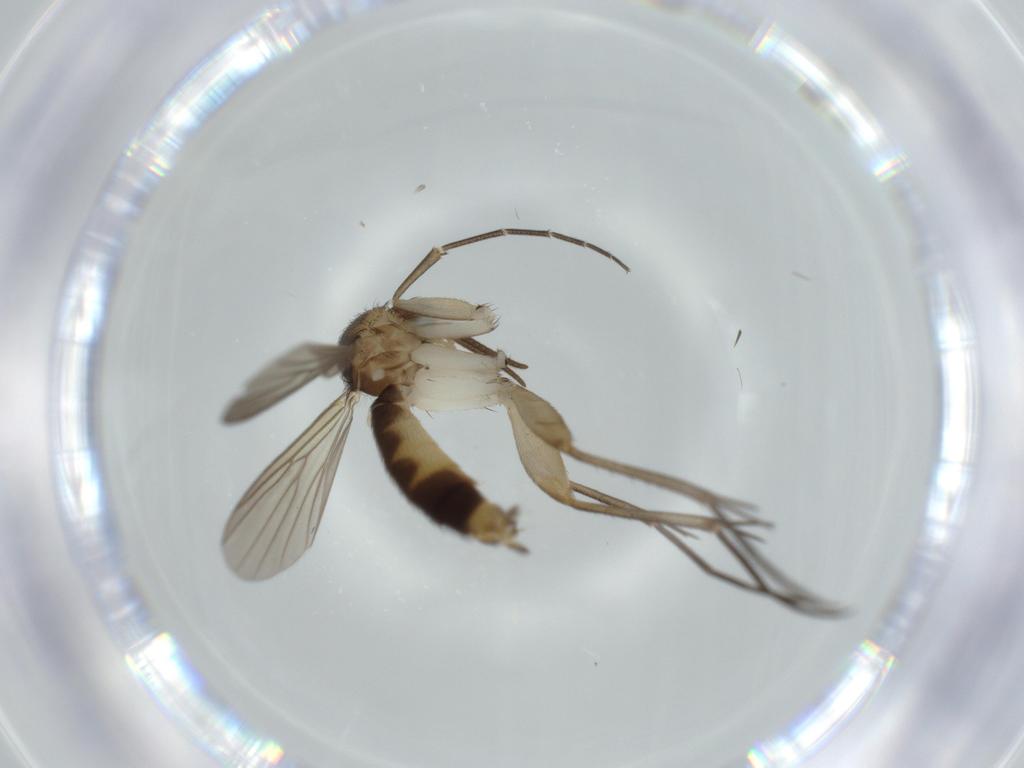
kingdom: Animalia
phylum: Arthropoda
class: Insecta
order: Diptera
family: Mycetophilidae
